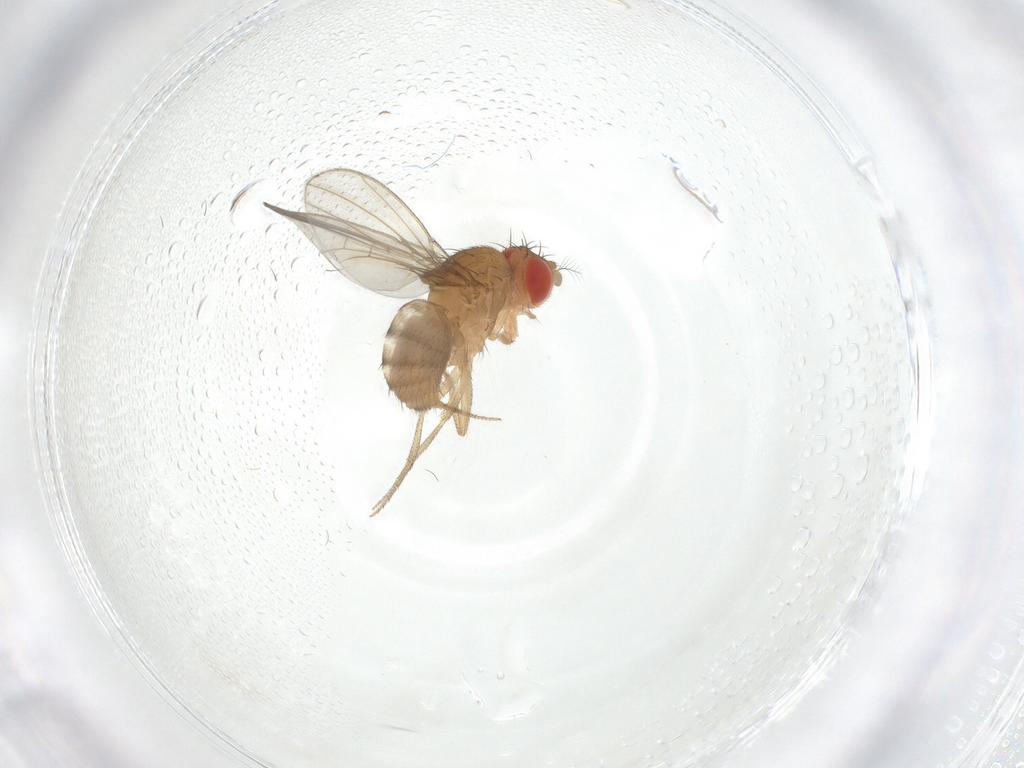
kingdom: Animalia
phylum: Arthropoda
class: Insecta
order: Diptera
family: Drosophilidae
